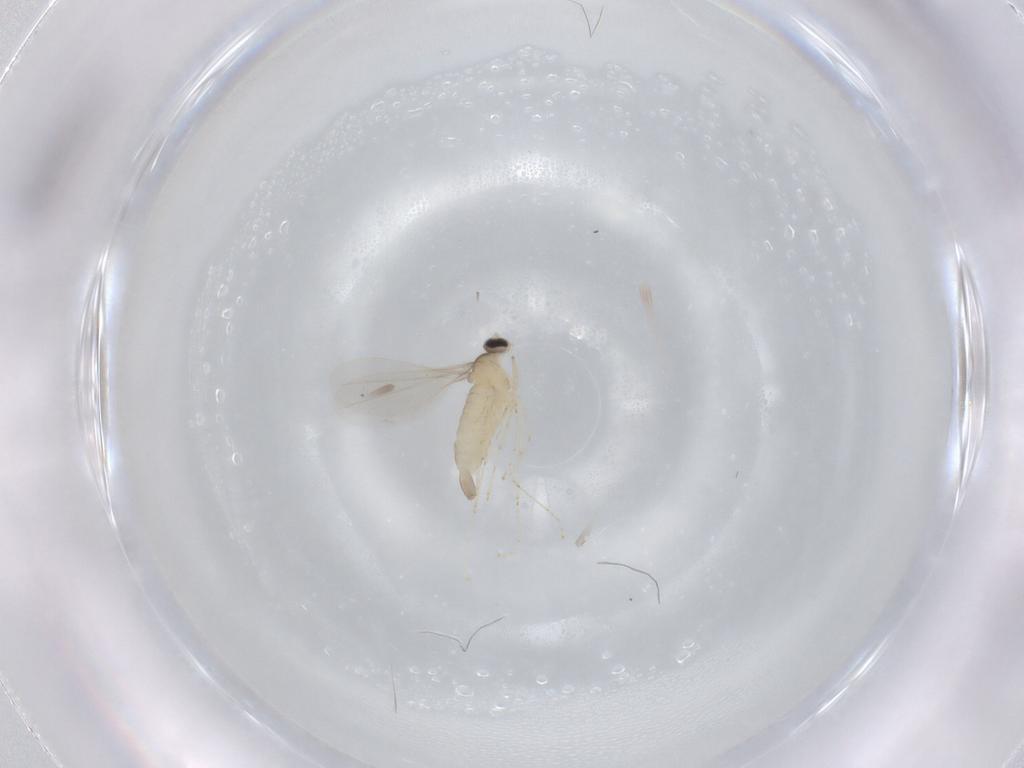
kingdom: Animalia
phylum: Arthropoda
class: Insecta
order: Diptera
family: Cecidomyiidae
